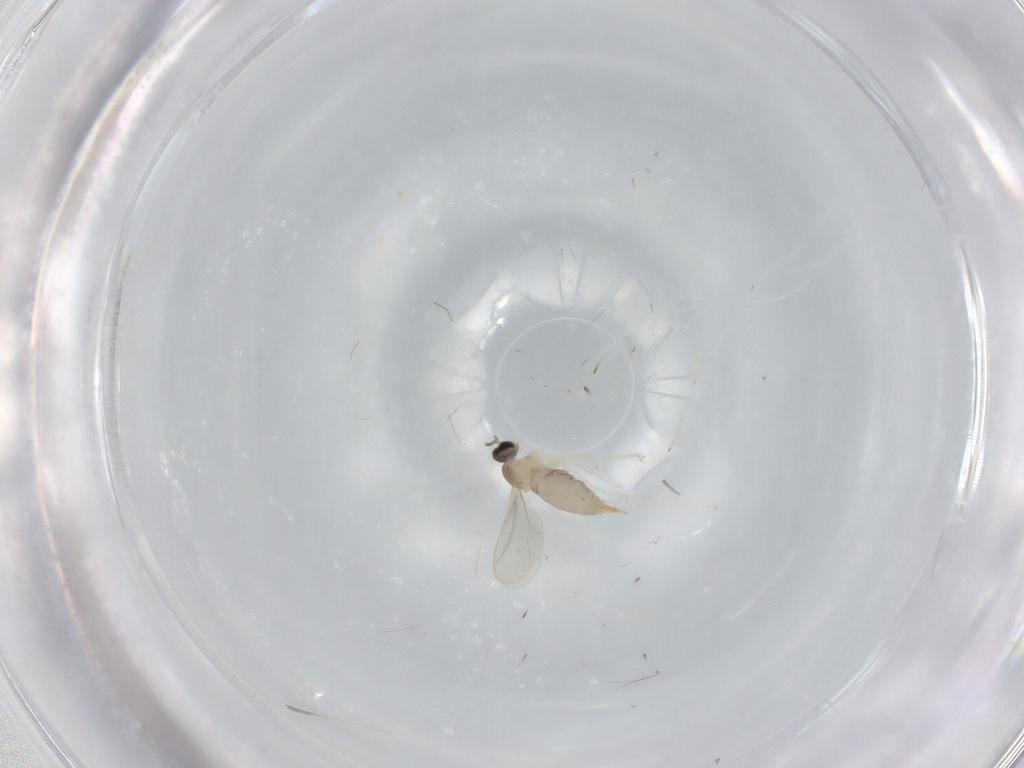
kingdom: Animalia
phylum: Arthropoda
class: Insecta
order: Diptera
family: Cecidomyiidae
